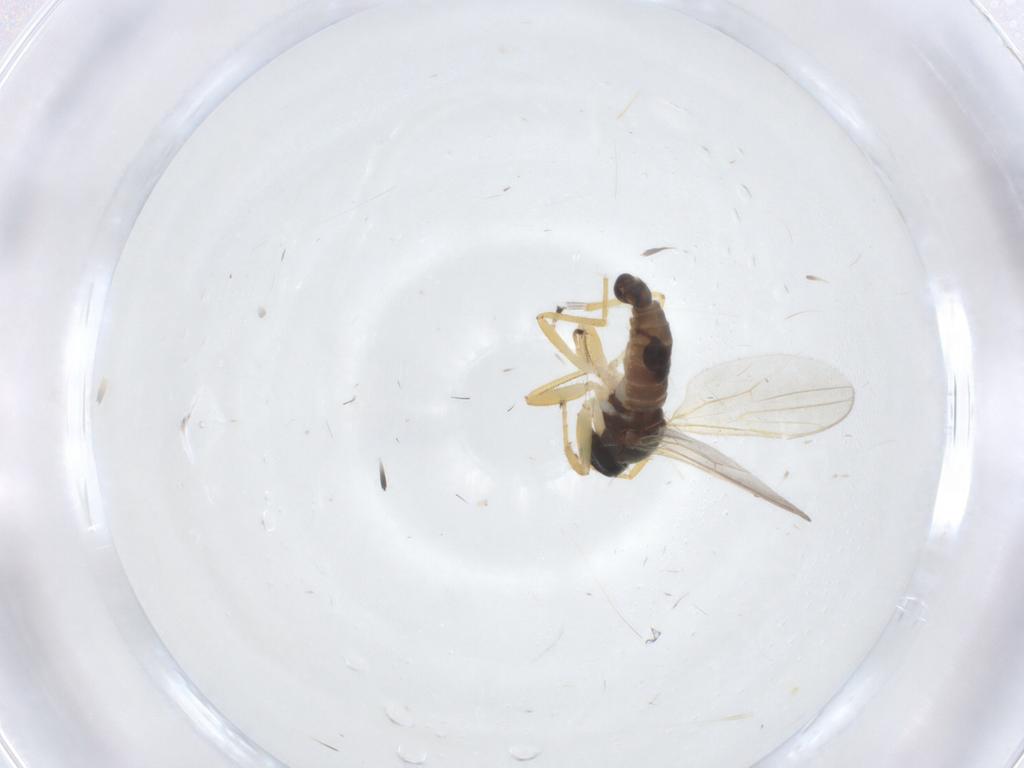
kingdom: Animalia
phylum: Arthropoda
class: Insecta
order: Diptera
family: Hybotidae
